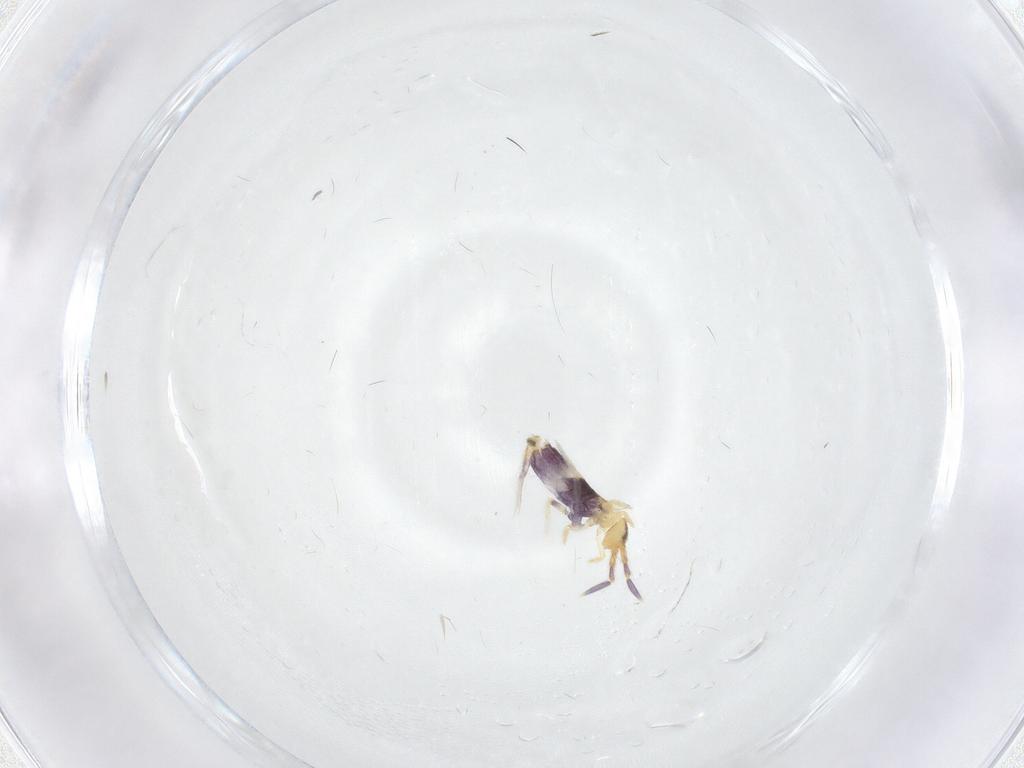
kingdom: Animalia
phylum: Arthropoda
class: Collembola
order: Entomobryomorpha
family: Entomobryidae
